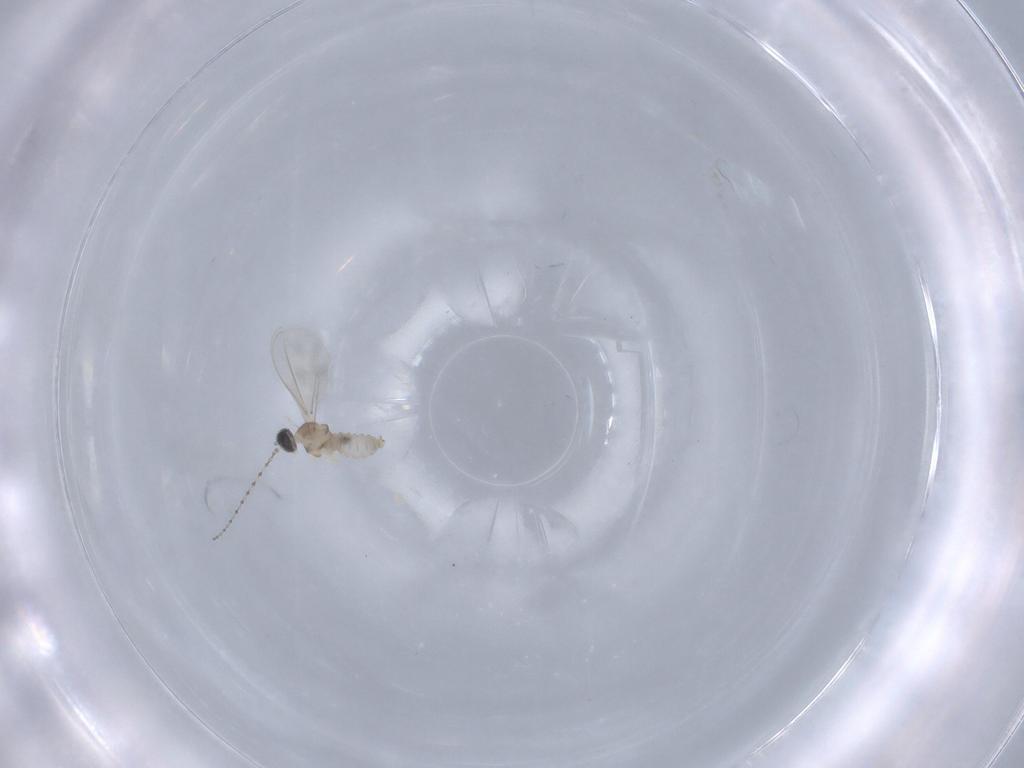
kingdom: Animalia
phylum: Arthropoda
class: Insecta
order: Diptera
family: Cecidomyiidae
